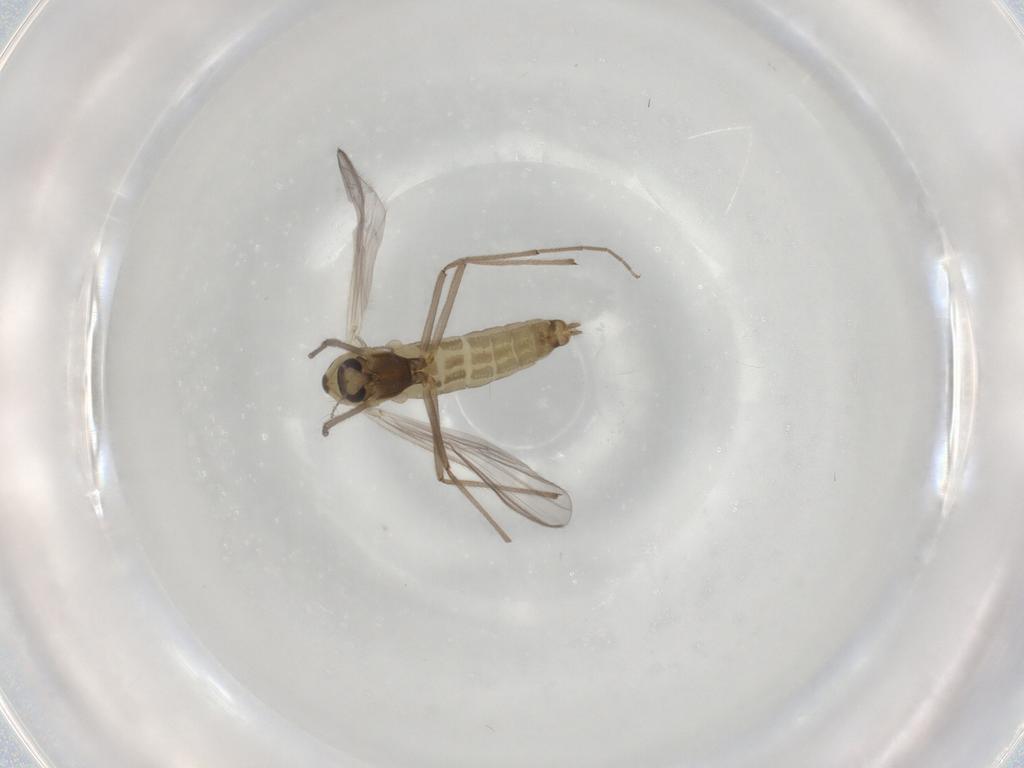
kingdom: Animalia
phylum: Arthropoda
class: Insecta
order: Diptera
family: Chironomidae
